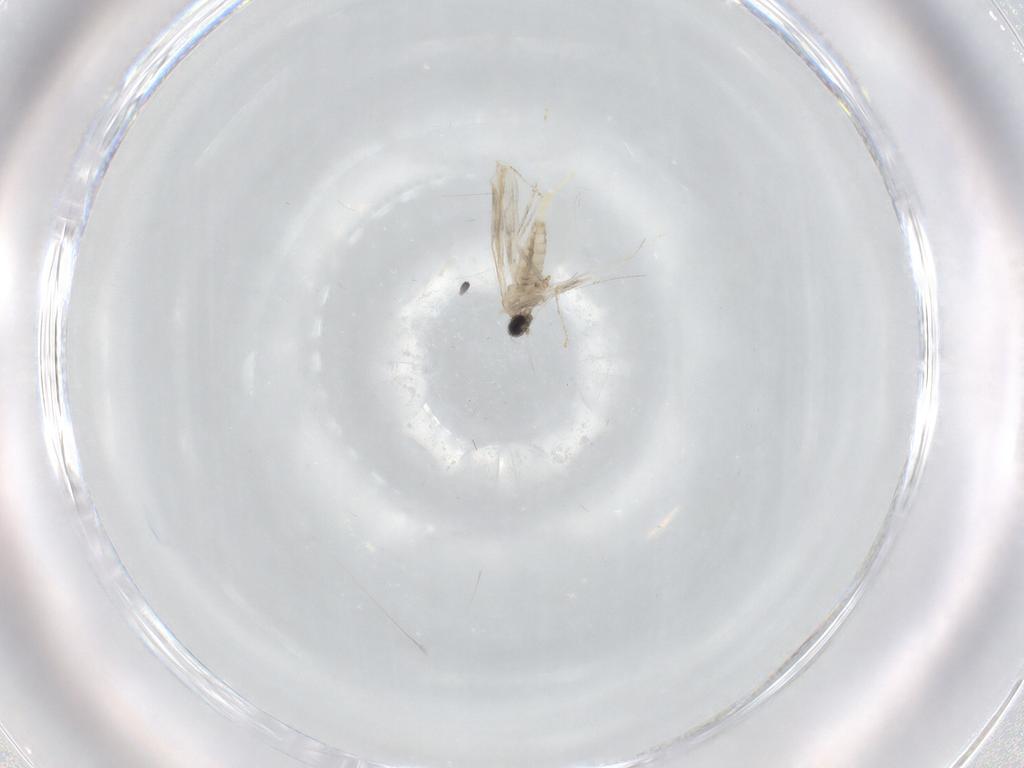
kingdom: Animalia
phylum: Arthropoda
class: Insecta
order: Diptera
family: Cecidomyiidae
